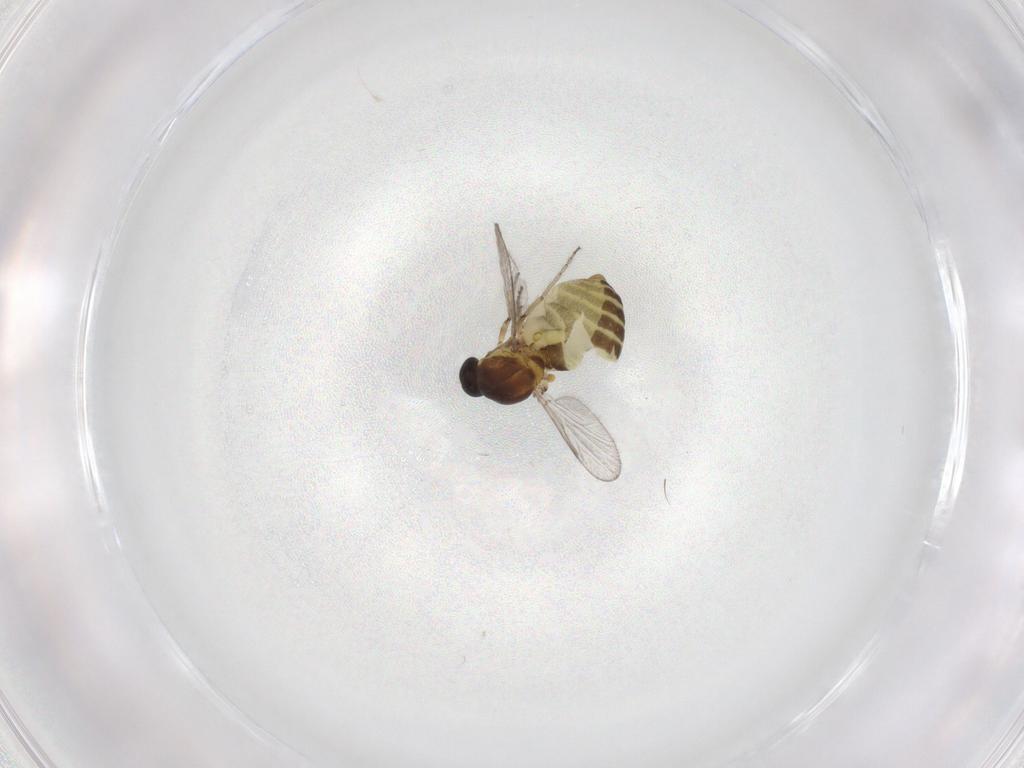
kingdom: Animalia
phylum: Arthropoda
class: Insecta
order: Diptera
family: Ceratopogonidae
